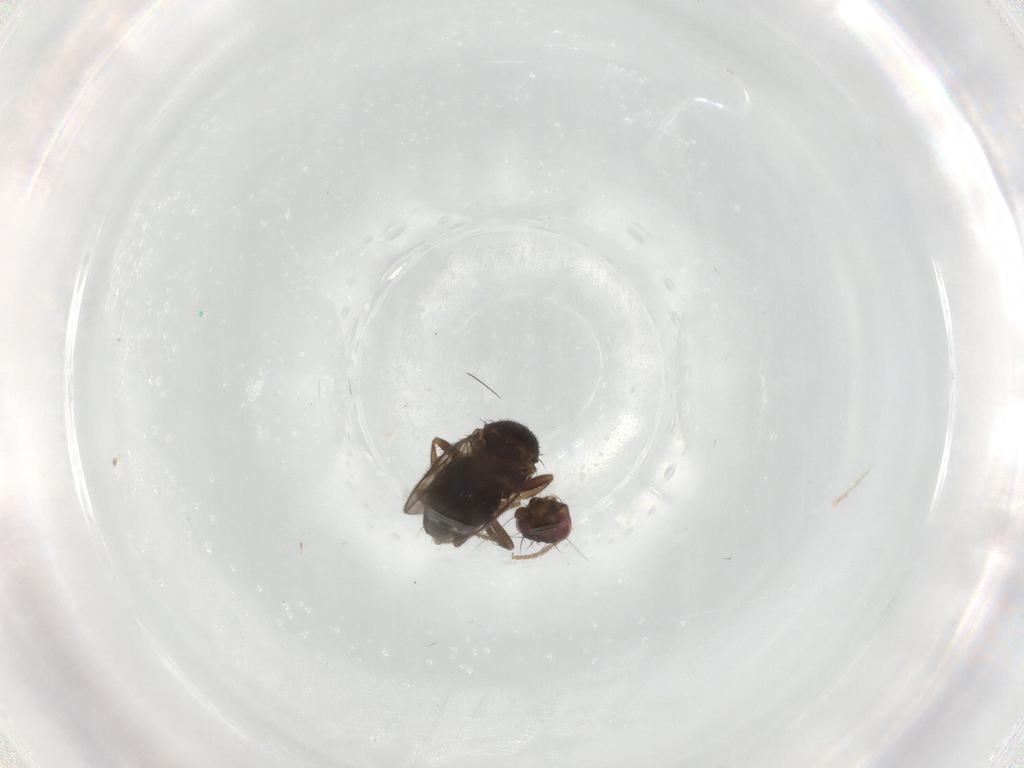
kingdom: Animalia
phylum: Arthropoda
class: Insecta
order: Diptera
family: Sphaeroceridae
